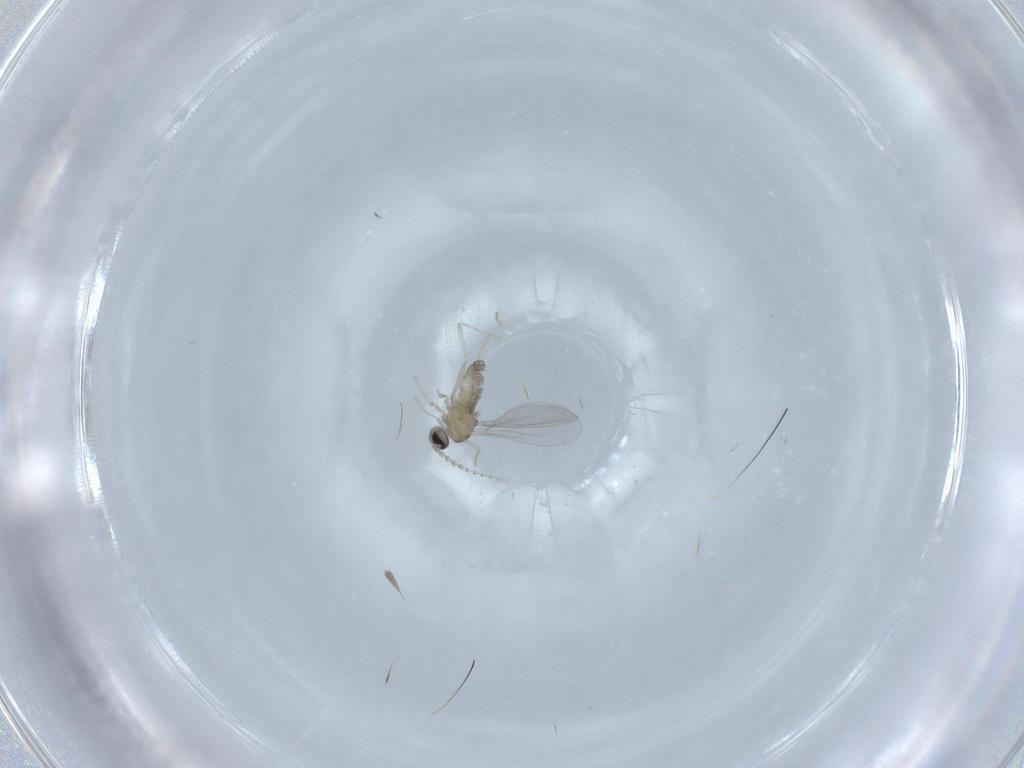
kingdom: Animalia
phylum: Arthropoda
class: Insecta
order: Diptera
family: Cecidomyiidae
